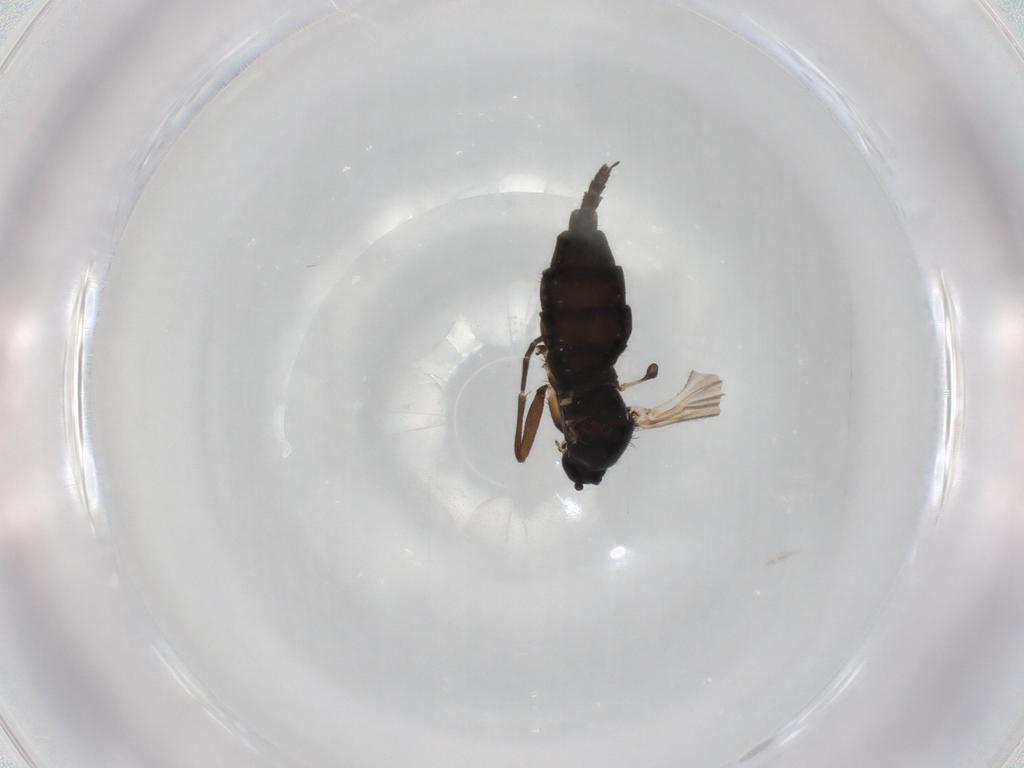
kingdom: Animalia
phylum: Arthropoda
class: Insecta
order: Diptera
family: Sciaridae
